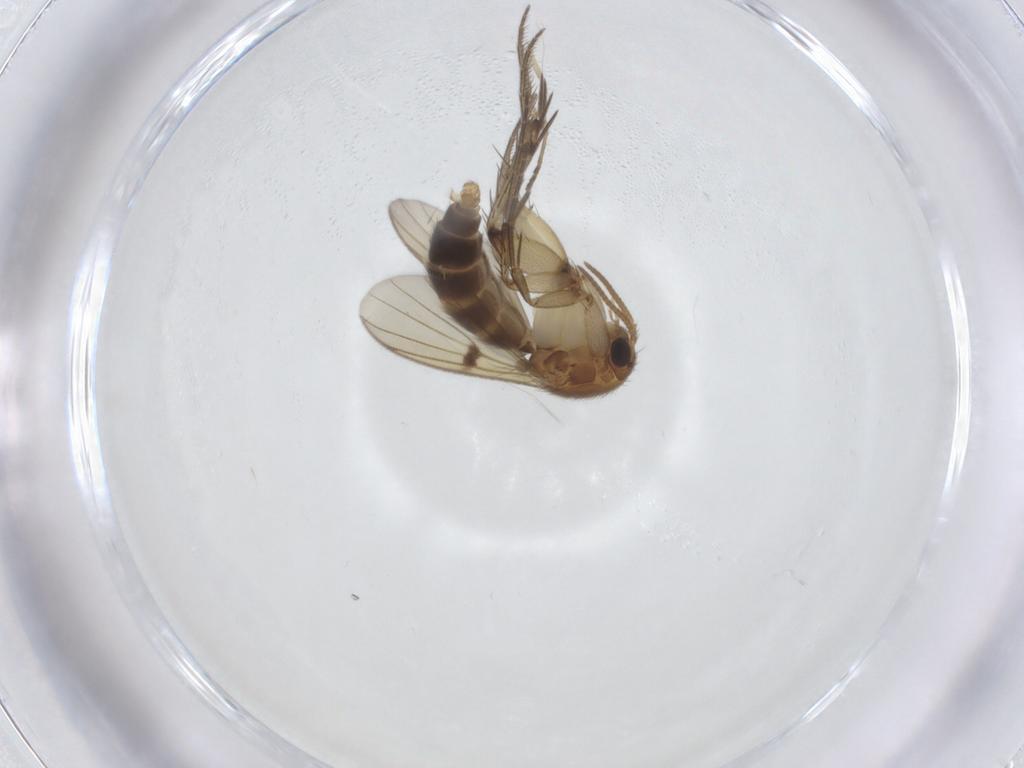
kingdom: Animalia
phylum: Arthropoda
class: Insecta
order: Diptera
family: Mycetophilidae
